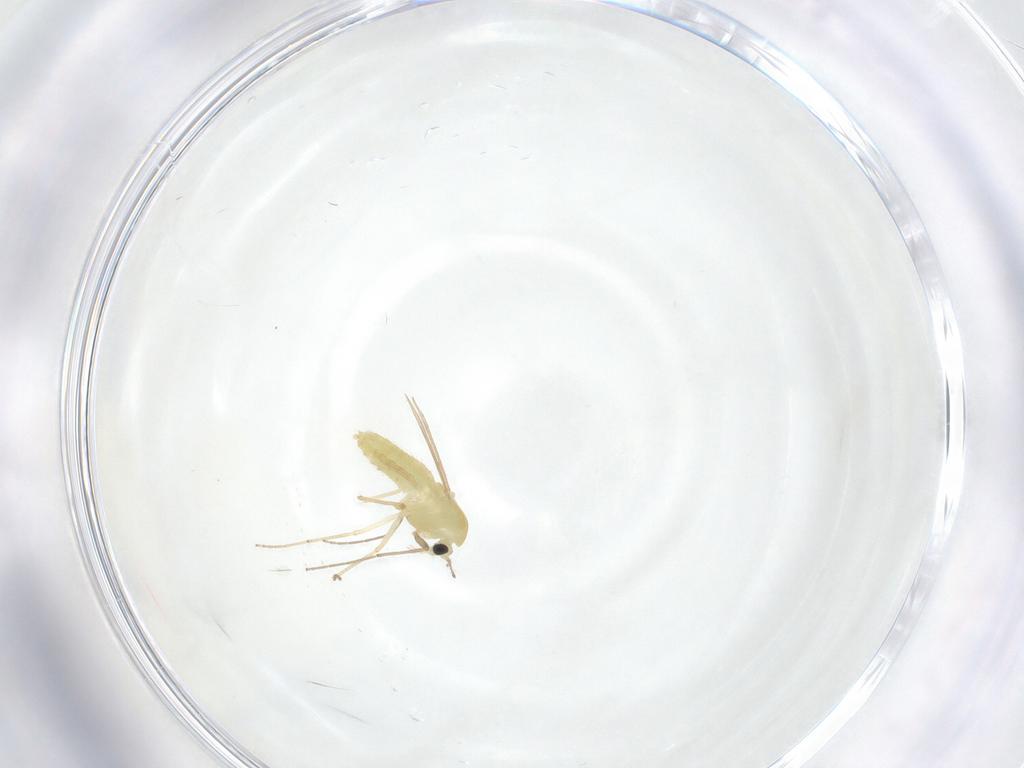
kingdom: Animalia
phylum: Arthropoda
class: Insecta
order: Diptera
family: Chironomidae
